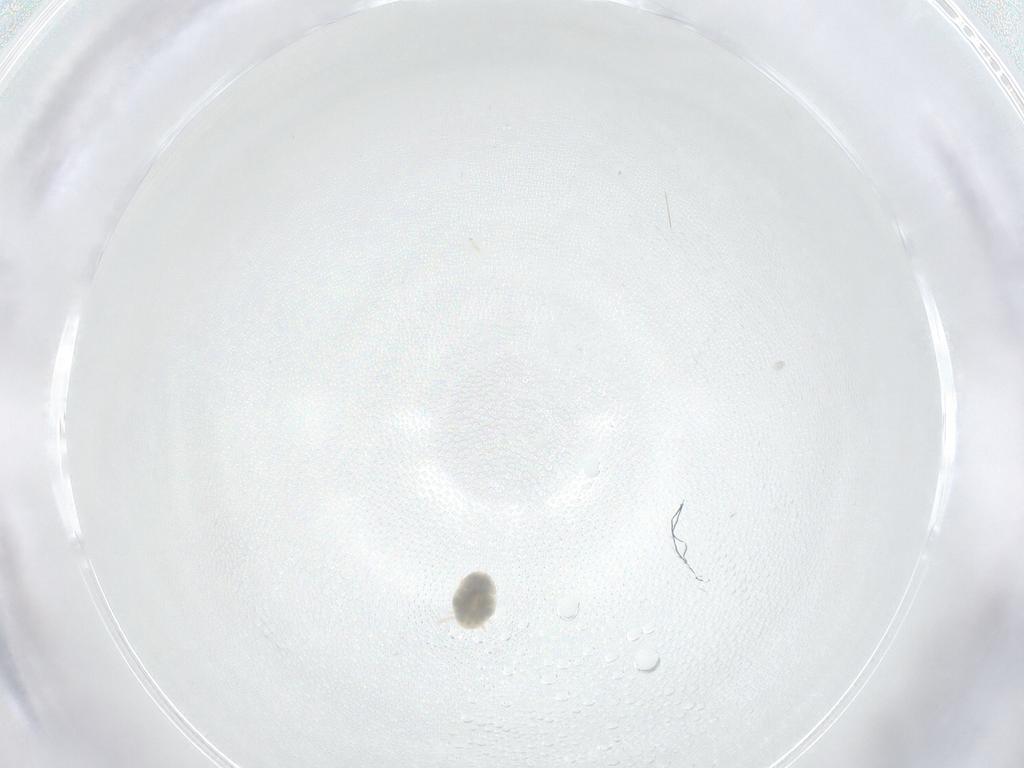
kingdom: Animalia
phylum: Arthropoda
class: Insecta
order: Diptera
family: Ceratopogonidae
